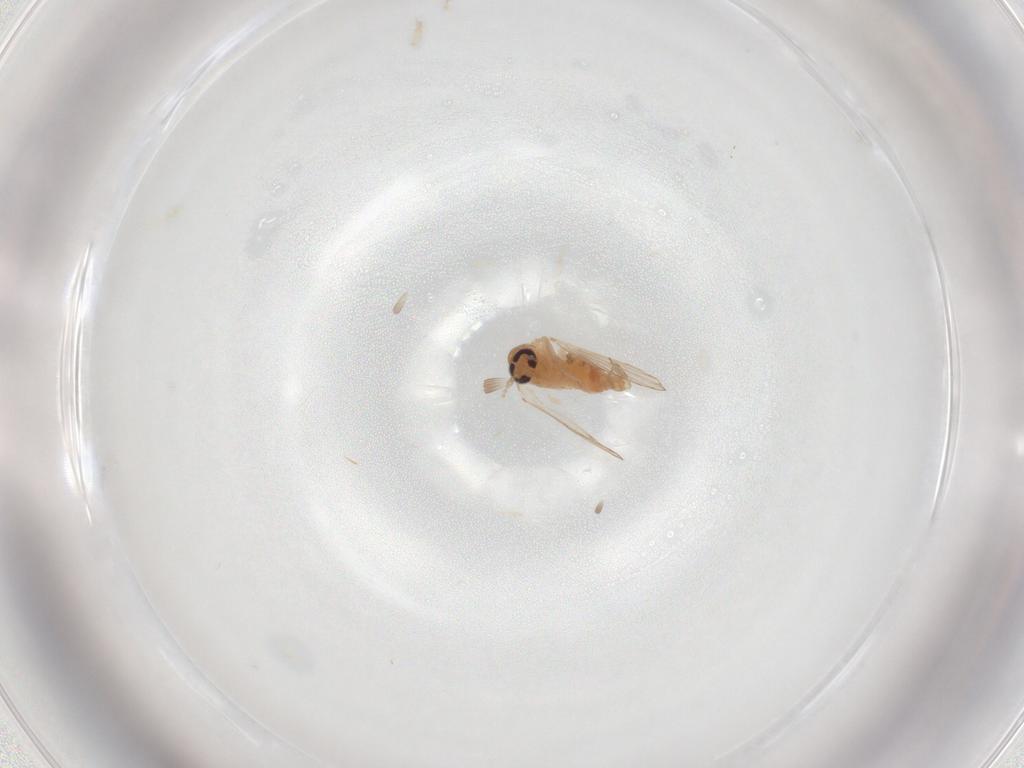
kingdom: Animalia
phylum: Arthropoda
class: Insecta
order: Diptera
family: Psychodidae
